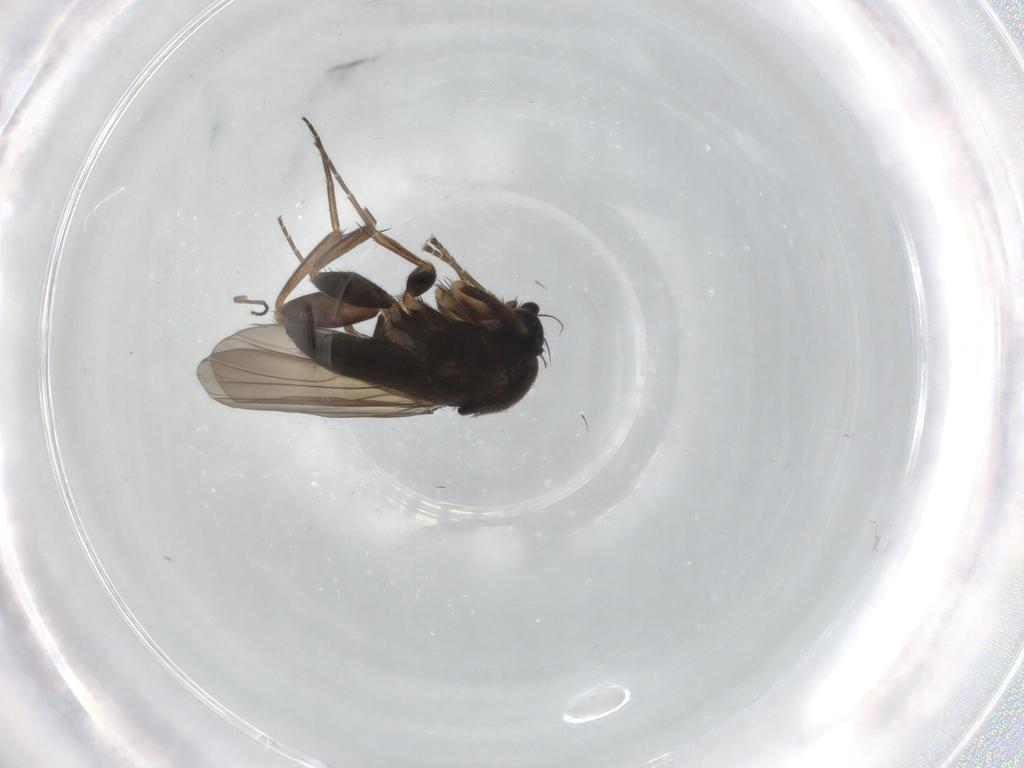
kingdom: Animalia
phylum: Arthropoda
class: Insecta
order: Diptera
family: Phoridae
